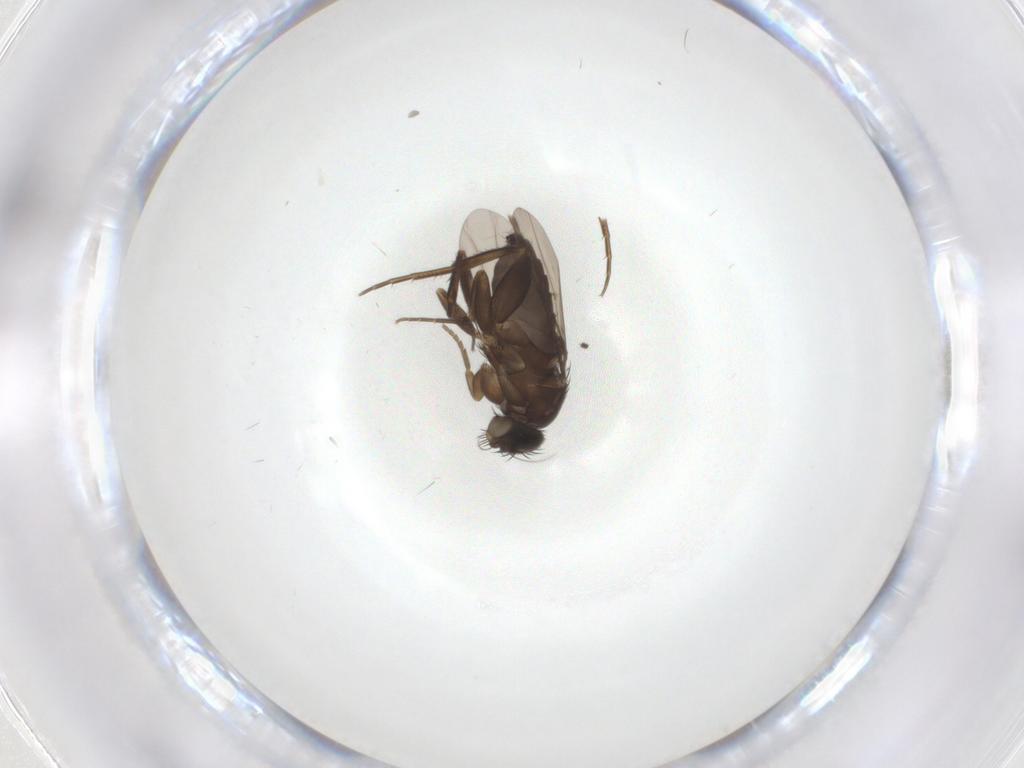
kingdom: Animalia
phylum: Arthropoda
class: Insecta
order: Diptera
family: Phoridae
